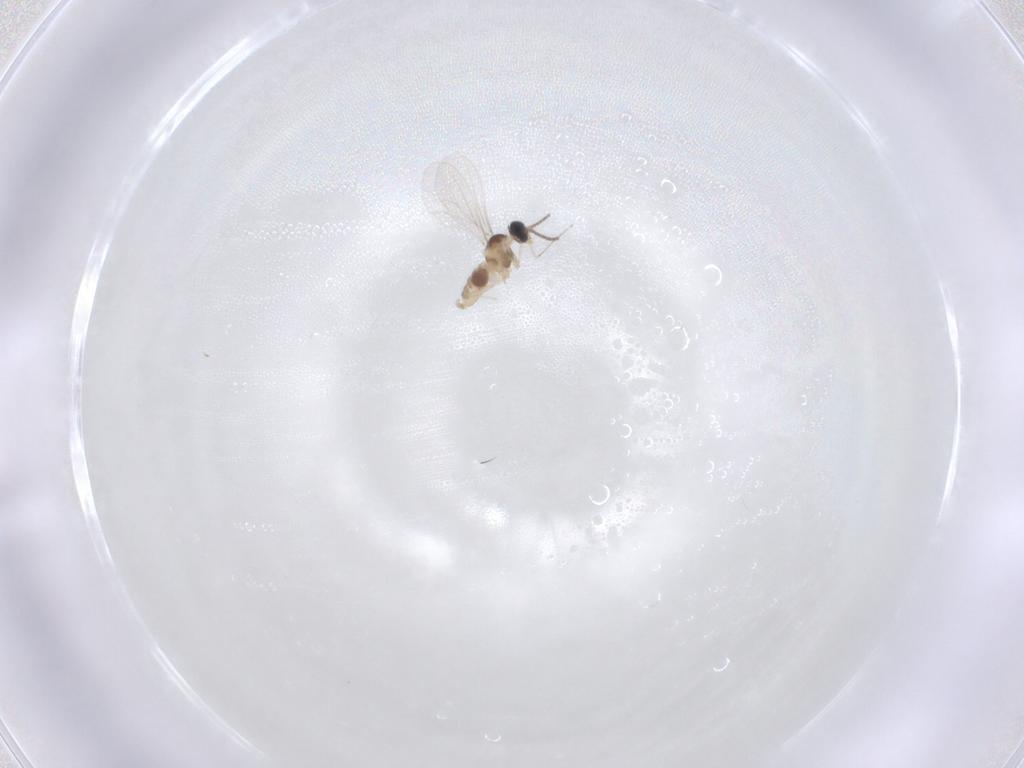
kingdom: Animalia
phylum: Arthropoda
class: Insecta
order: Diptera
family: Cecidomyiidae
